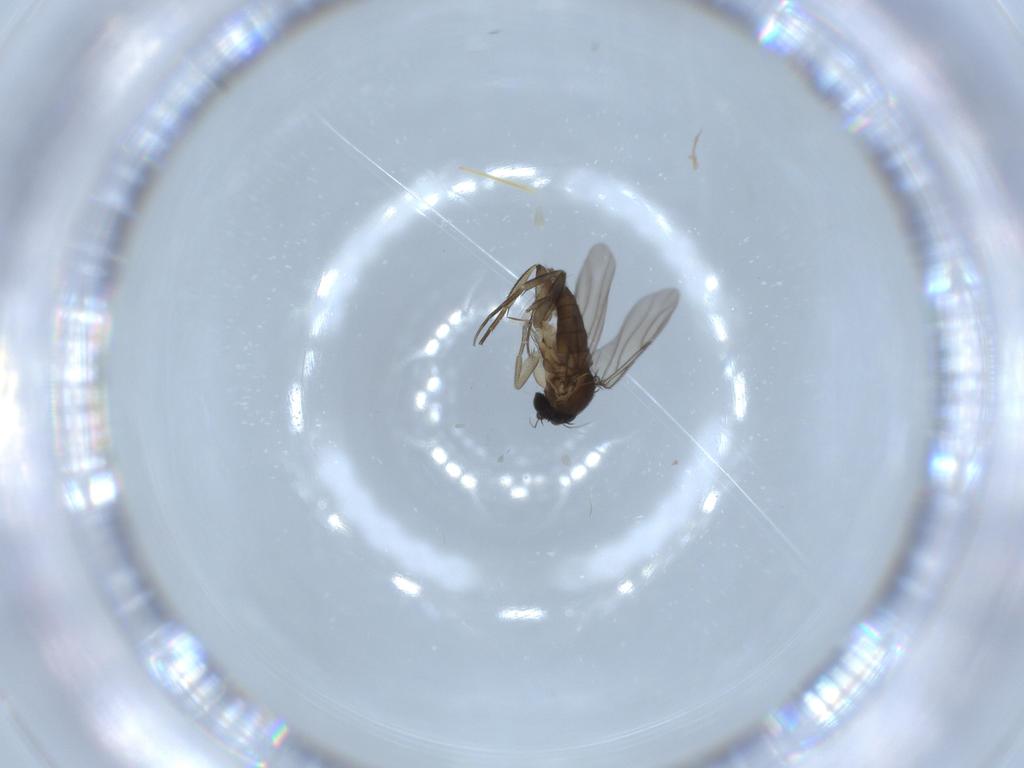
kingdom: Animalia
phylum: Arthropoda
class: Insecta
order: Diptera
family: Phoridae
